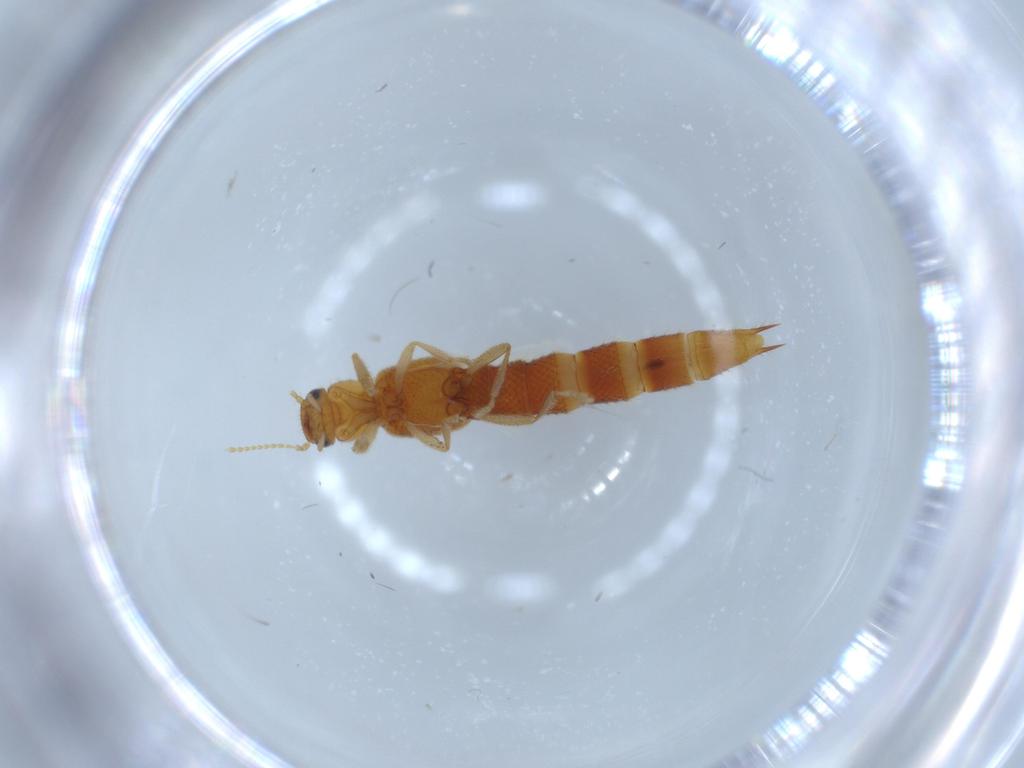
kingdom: Animalia
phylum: Arthropoda
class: Insecta
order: Coleoptera
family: Staphylinidae
